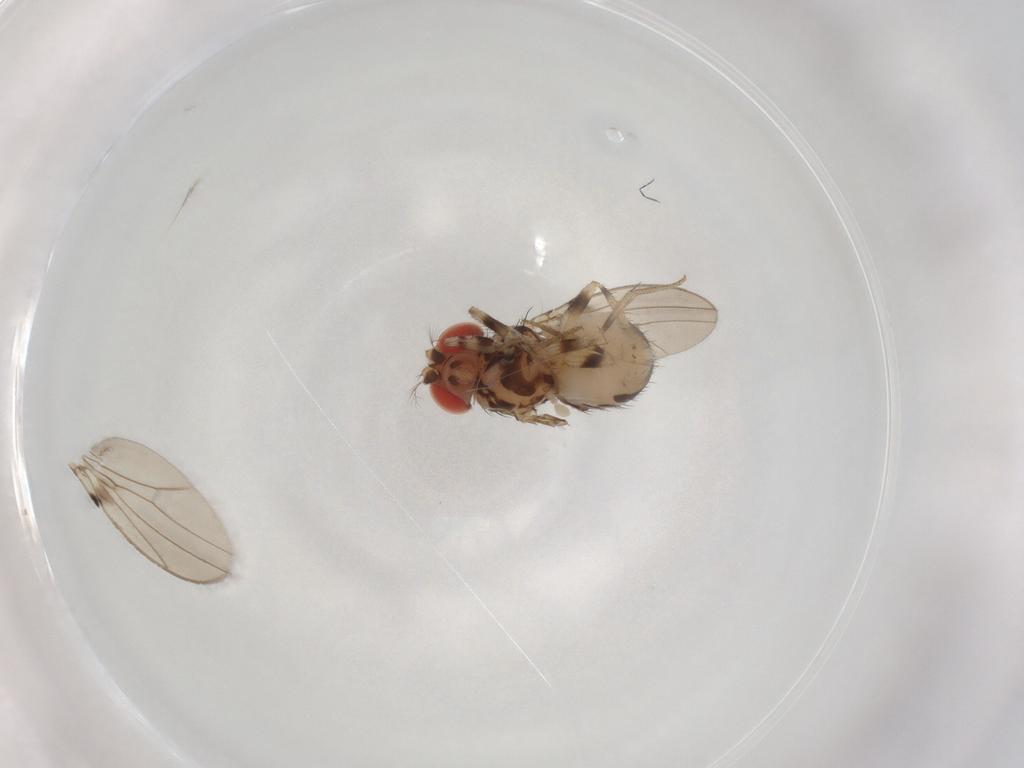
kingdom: Animalia
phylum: Arthropoda
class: Insecta
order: Diptera
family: Drosophilidae
